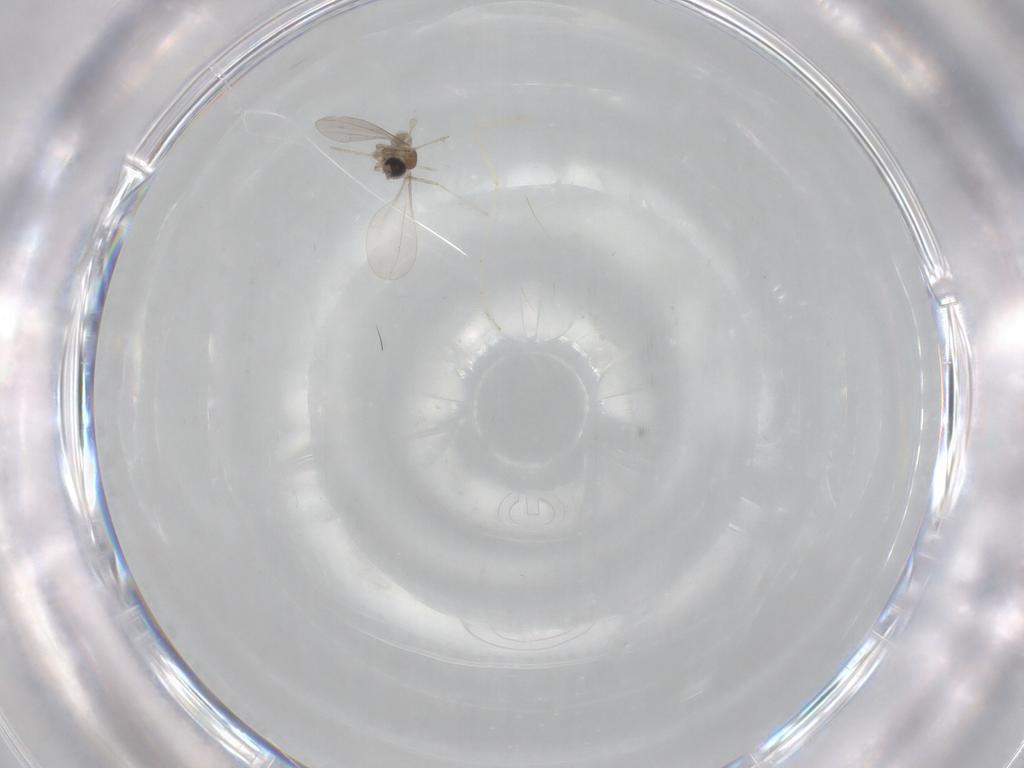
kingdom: Animalia
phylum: Arthropoda
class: Insecta
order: Diptera
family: Cecidomyiidae
